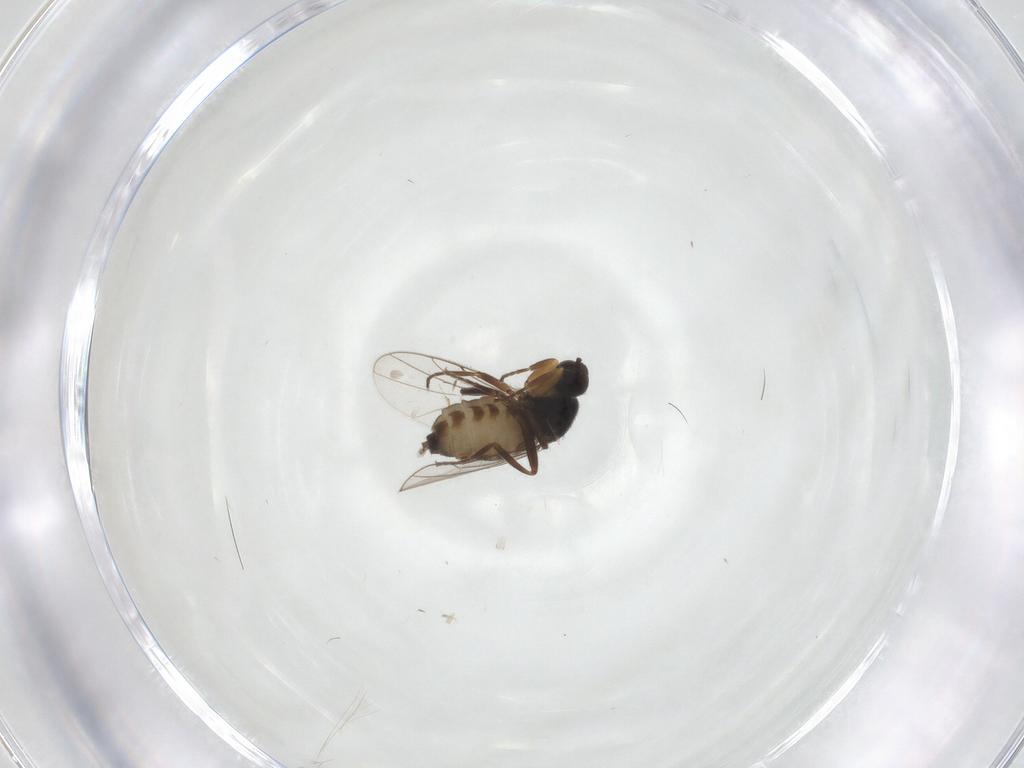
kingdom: Animalia
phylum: Arthropoda
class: Insecta
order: Diptera
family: Hybotidae
